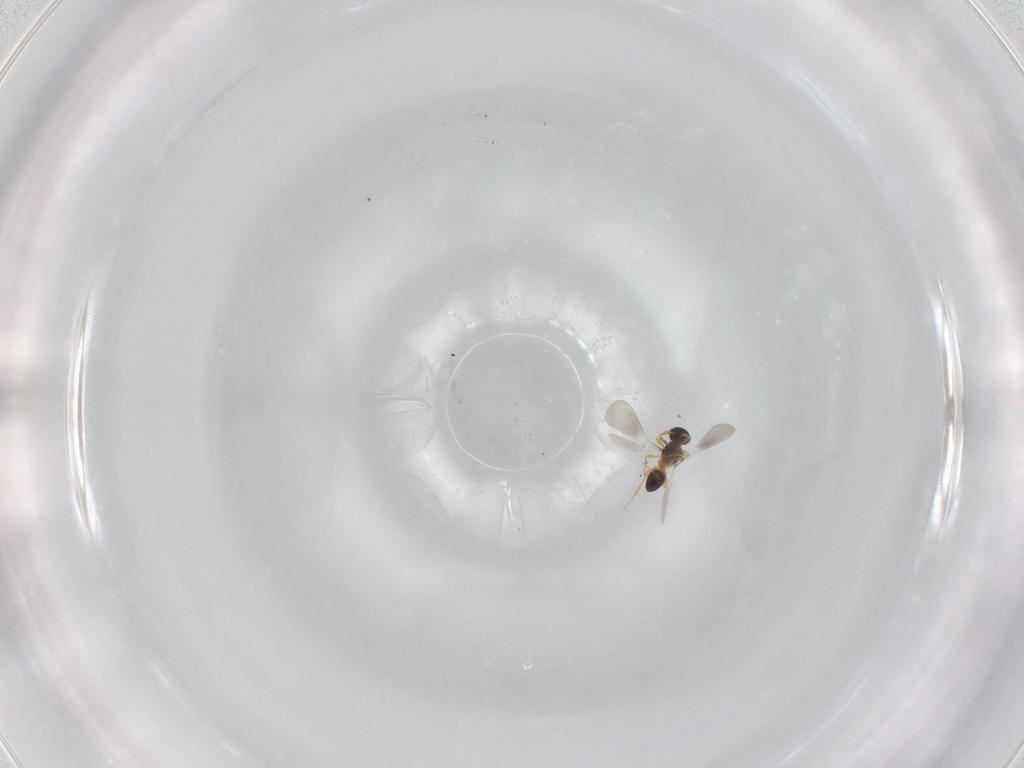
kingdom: Animalia
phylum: Arthropoda
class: Insecta
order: Hymenoptera
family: Platygastridae
